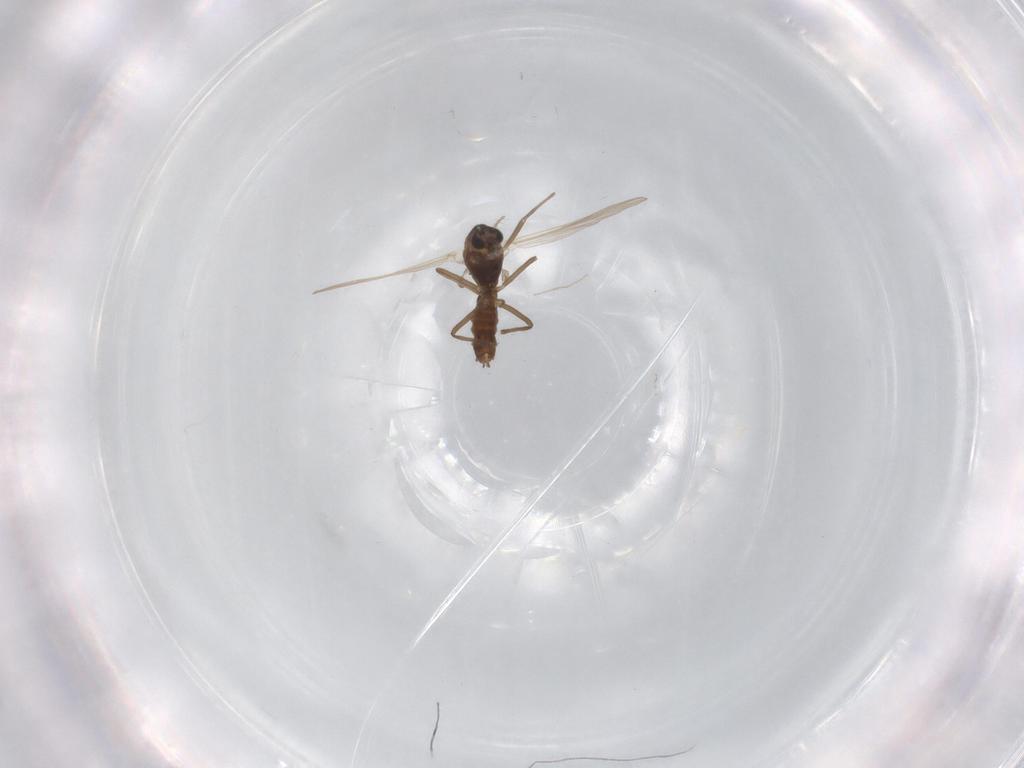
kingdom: Animalia
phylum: Arthropoda
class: Insecta
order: Diptera
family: Chironomidae
